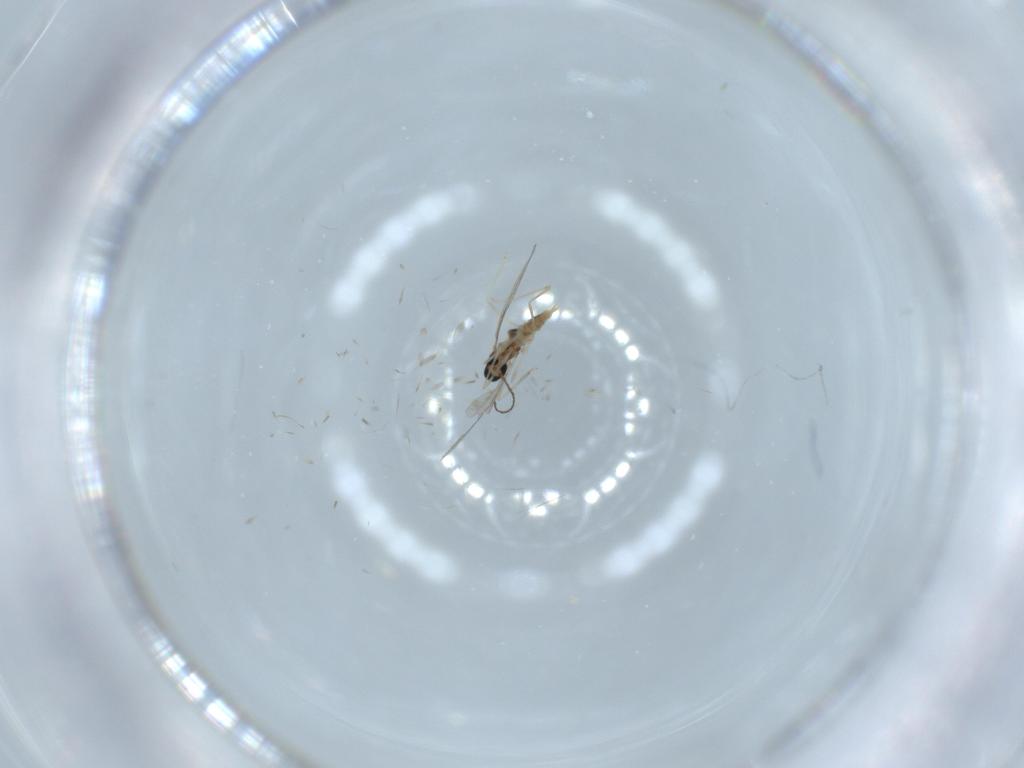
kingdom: Animalia
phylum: Arthropoda
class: Insecta
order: Diptera
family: Cecidomyiidae
